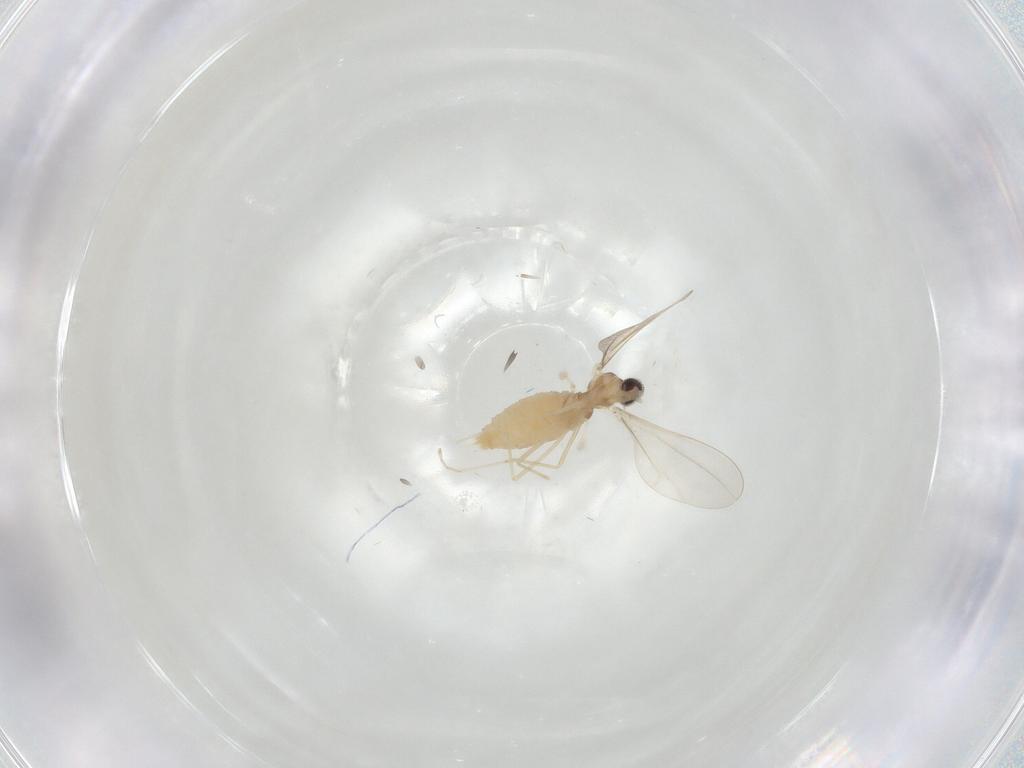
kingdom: Animalia
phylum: Arthropoda
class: Insecta
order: Diptera
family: Cecidomyiidae
